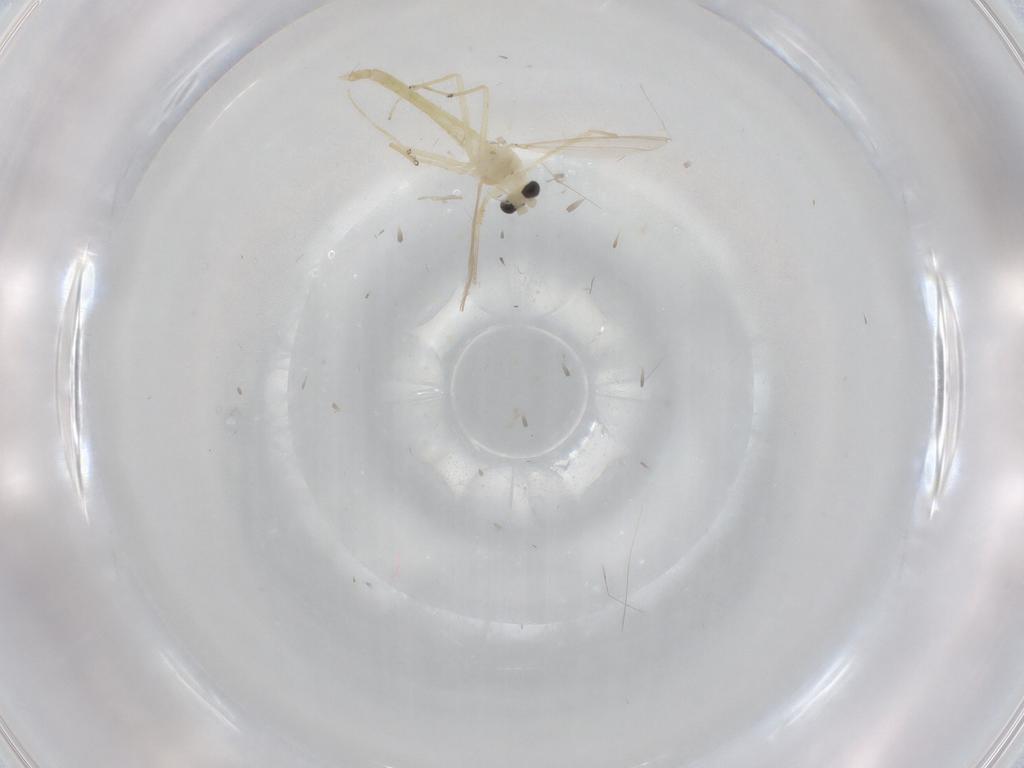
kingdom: Animalia
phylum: Arthropoda
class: Insecta
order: Diptera
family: Chironomidae
